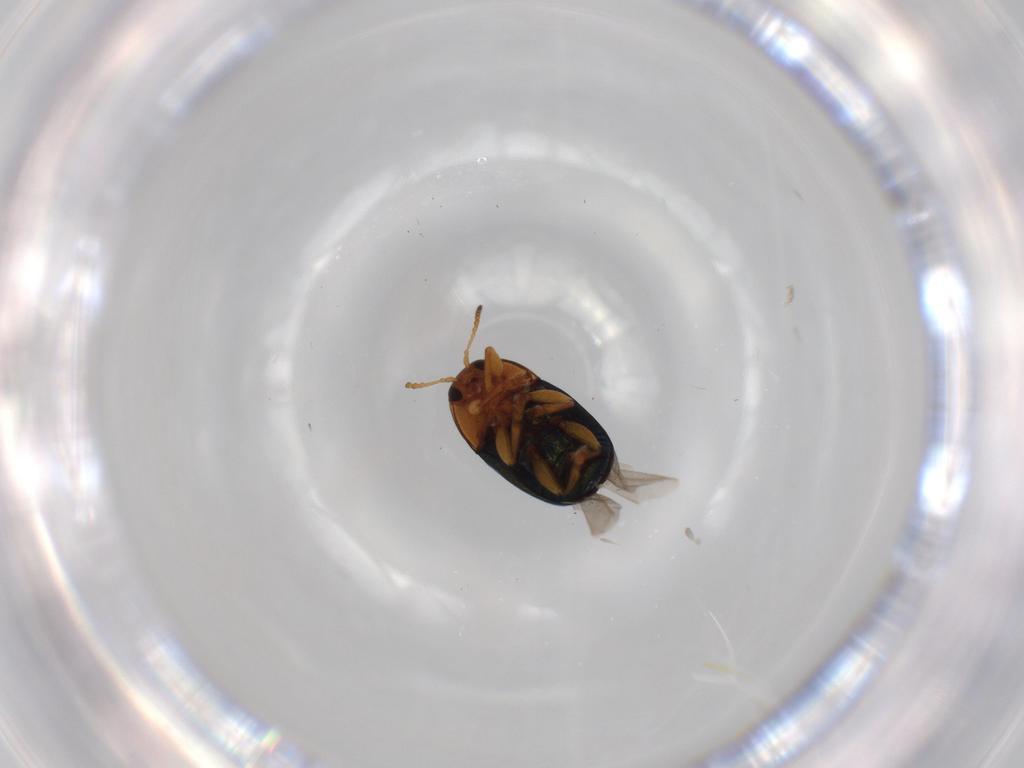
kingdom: Animalia
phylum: Arthropoda
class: Insecta
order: Coleoptera
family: Chrysomelidae
